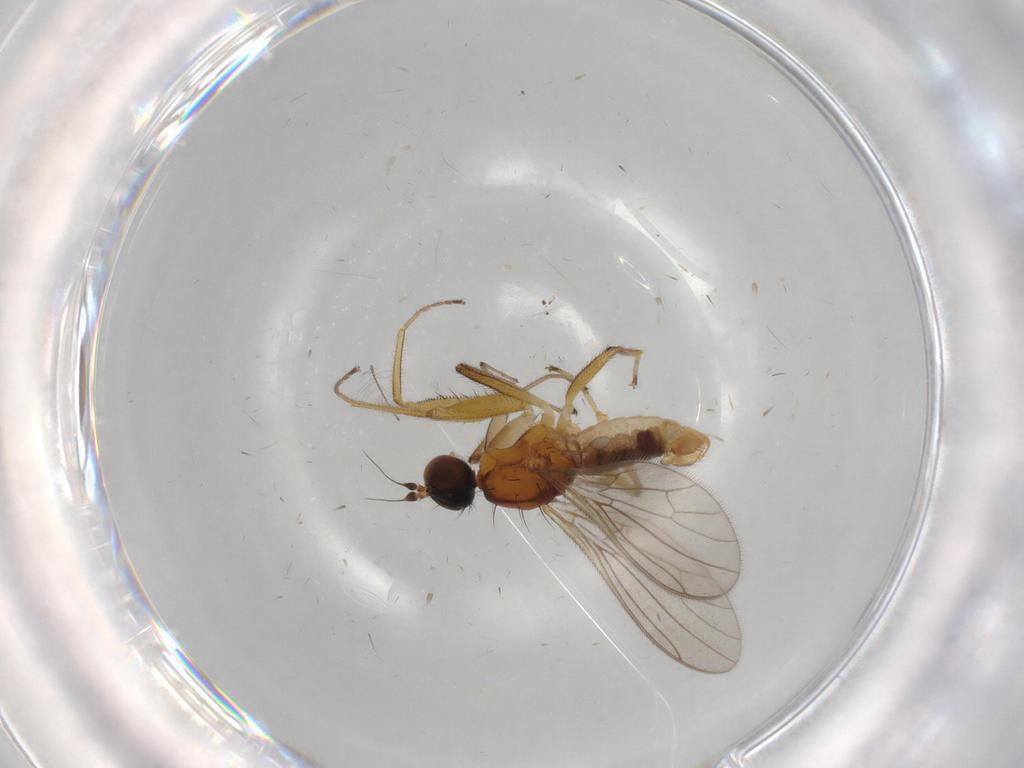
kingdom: Animalia
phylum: Arthropoda
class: Insecta
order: Diptera
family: Empididae
